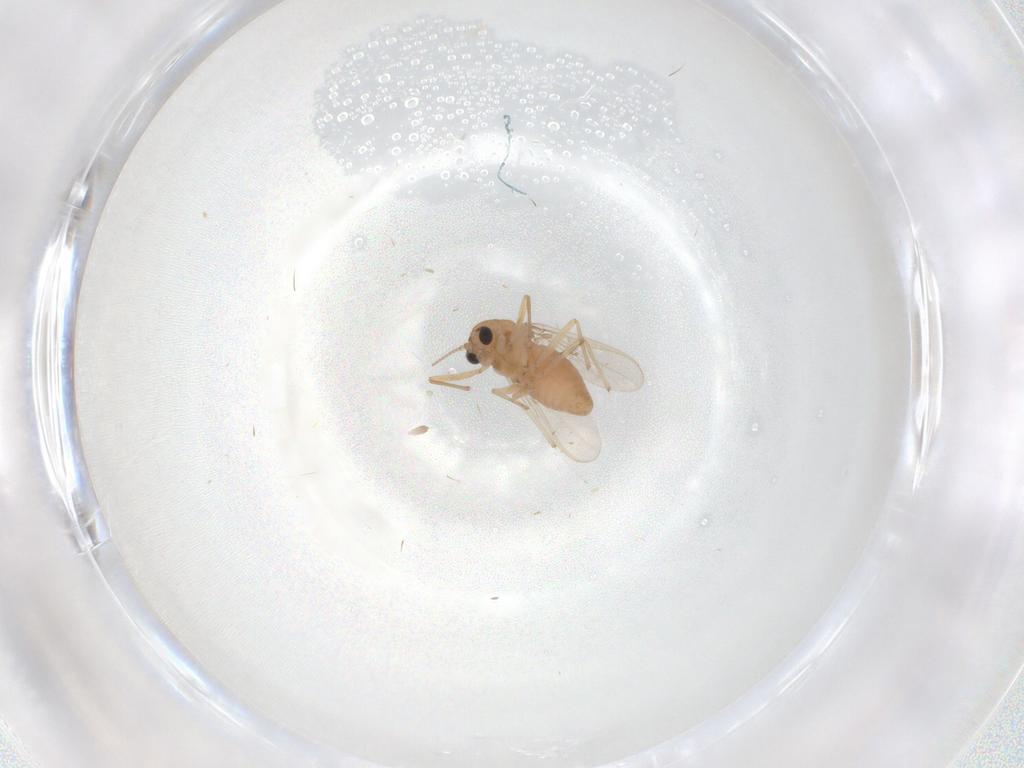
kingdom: Animalia
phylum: Arthropoda
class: Insecta
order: Diptera
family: Chironomidae
